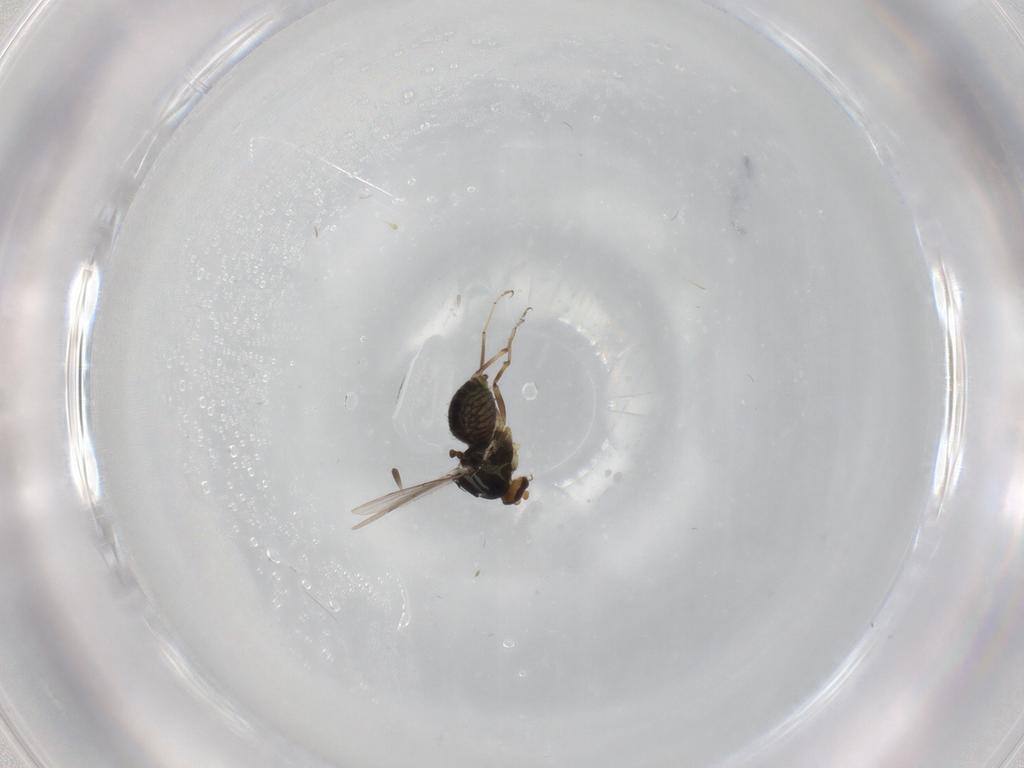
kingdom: Animalia
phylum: Arthropoda
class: Insecta
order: Diptera
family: Ceratopogonidae
